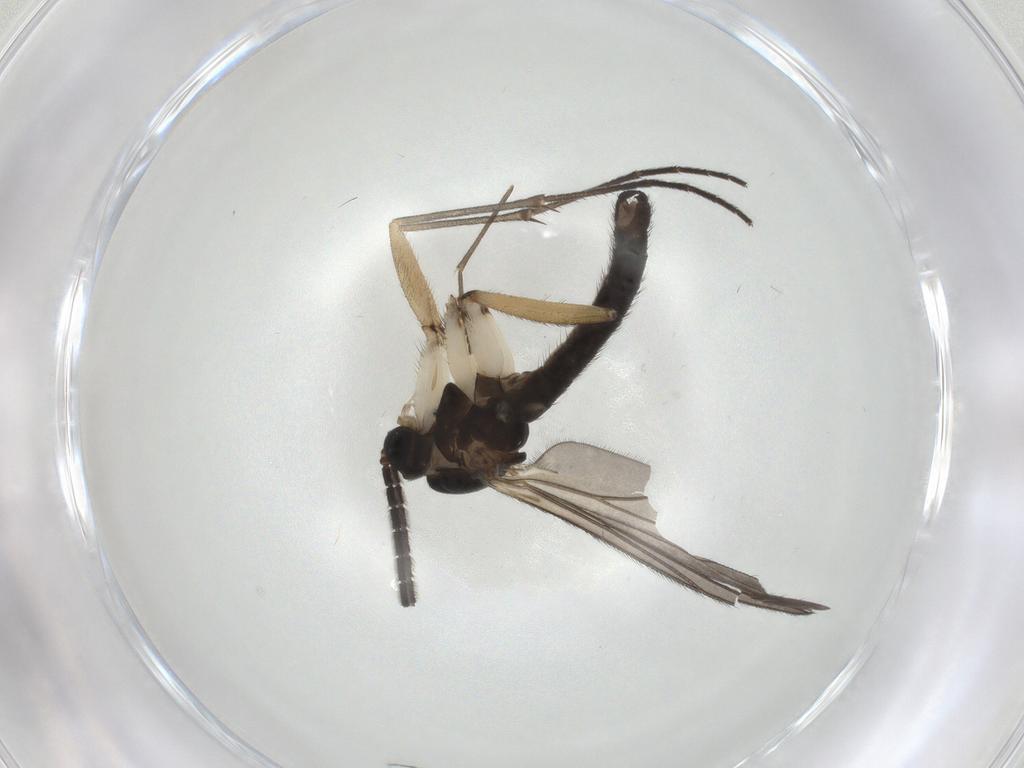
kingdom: Animalia
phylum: Arthropoda
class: Insecta
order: Diptera
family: Sciaridae
